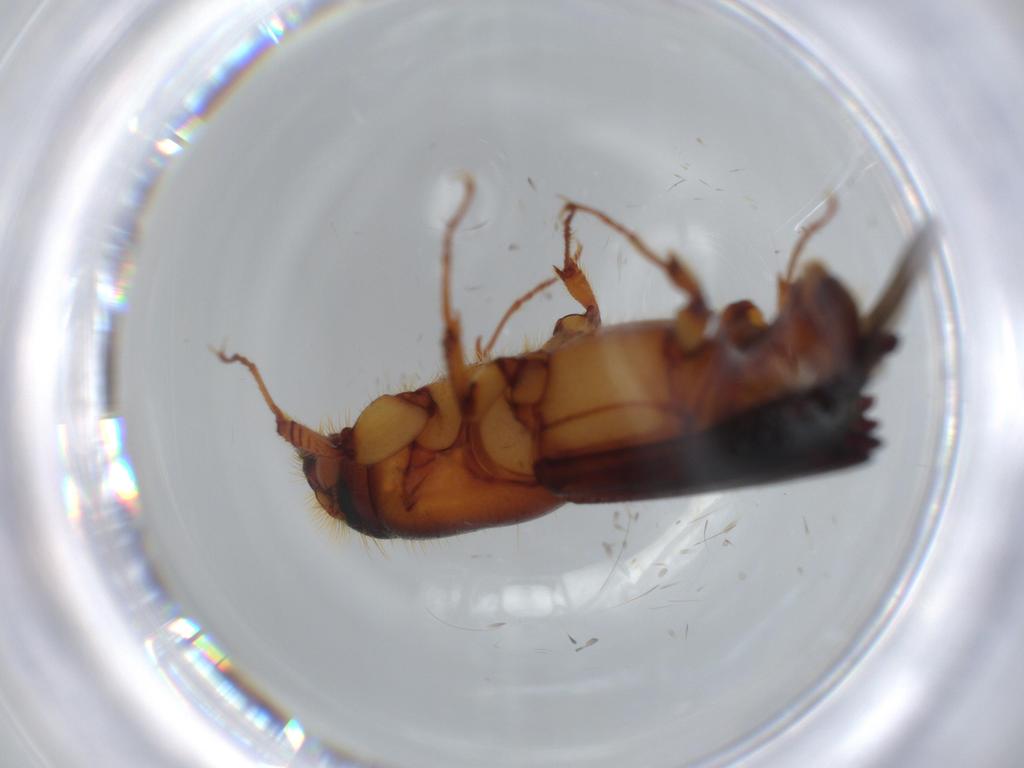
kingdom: Animalia
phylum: Arthropoda
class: Insecta
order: Coleoptera
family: Curculionidae
